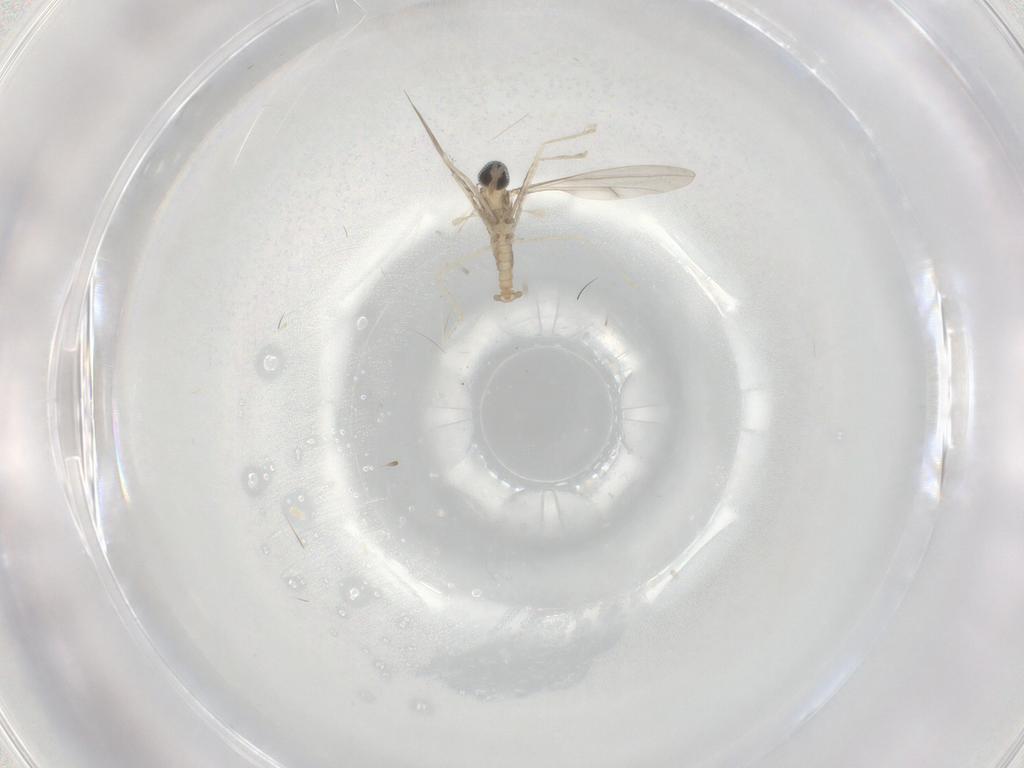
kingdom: Animalia
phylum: Arthropoda
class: Insecta
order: Diptera
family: Cecidomyiidae
